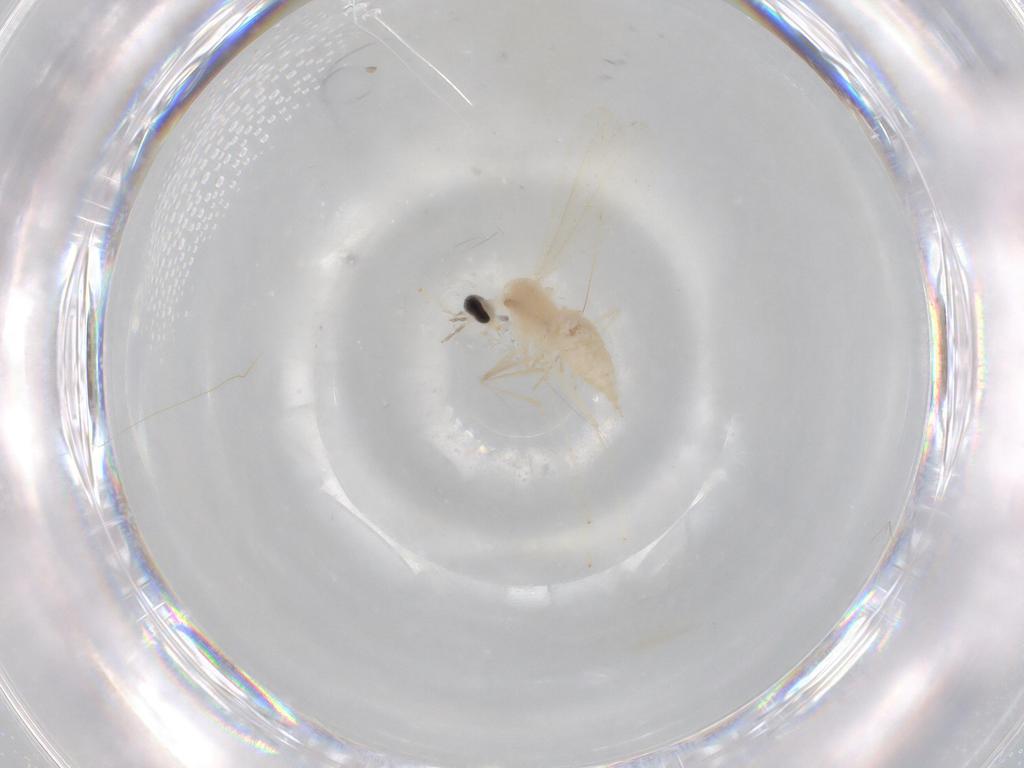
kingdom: Animalia
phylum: Arthropoda
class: Insecta
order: Diptera
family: Cecidomyiidae
